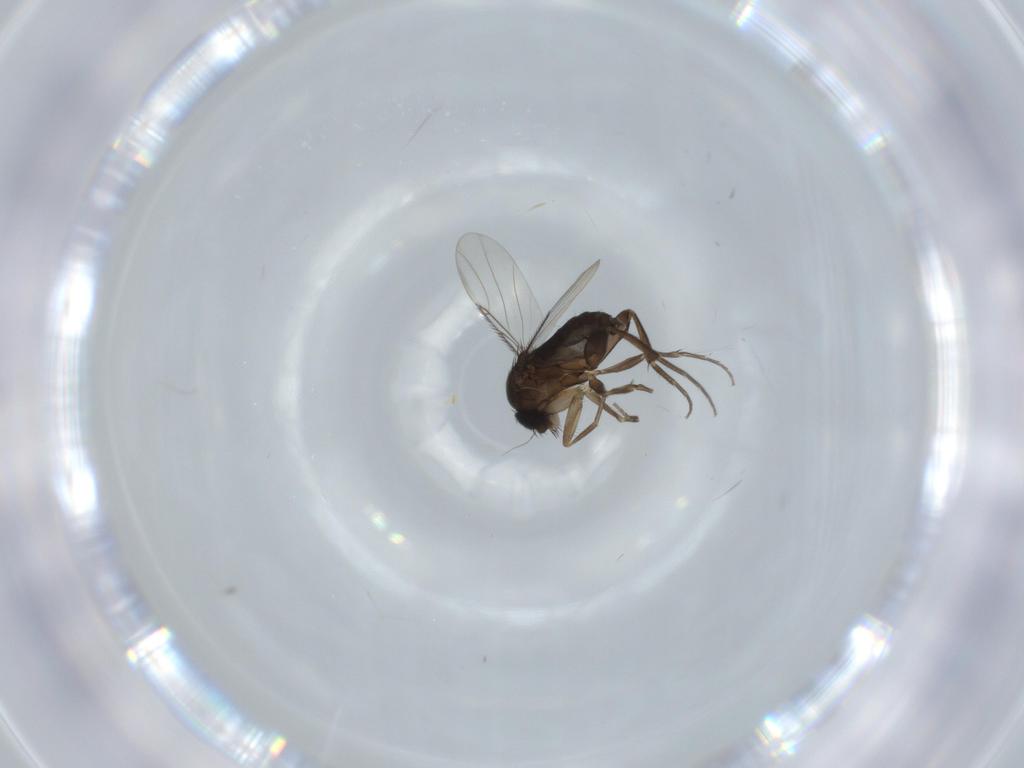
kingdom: Animalia
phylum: Arthropoda
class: Insecta
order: Diptera
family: Phoridae
